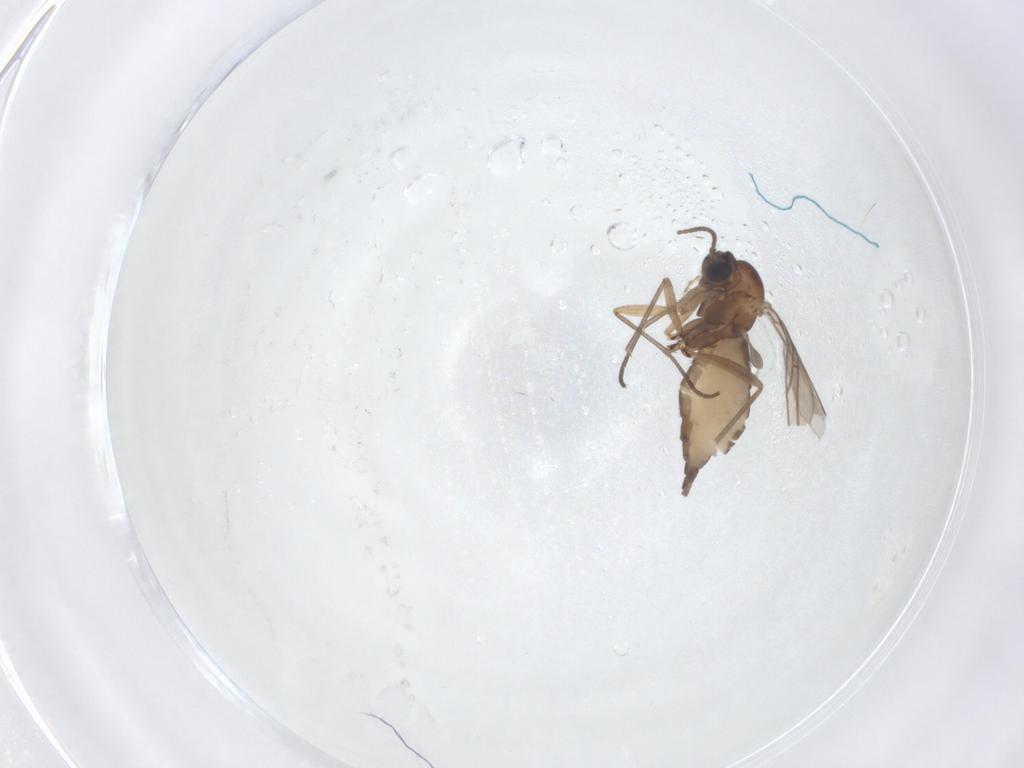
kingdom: Animalia
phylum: Arthropoda
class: Insecta
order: Diptera
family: Sciaridae
